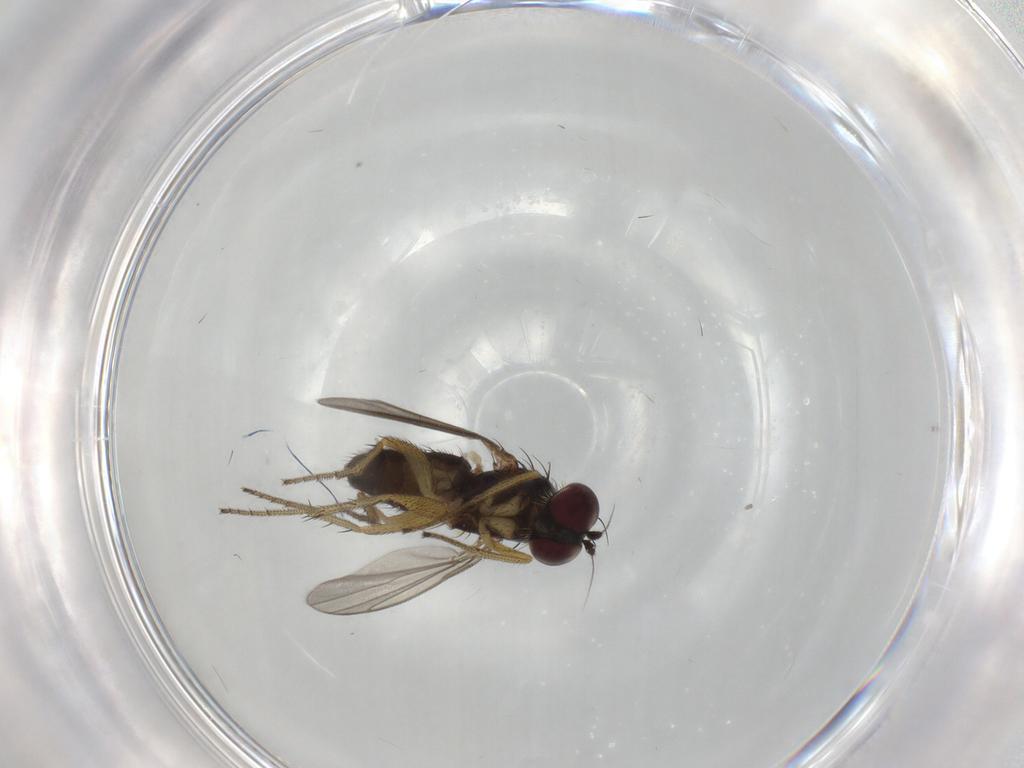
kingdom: Animalia
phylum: Arthropoda
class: Insecta
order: Diptera
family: Dolichopodidae
